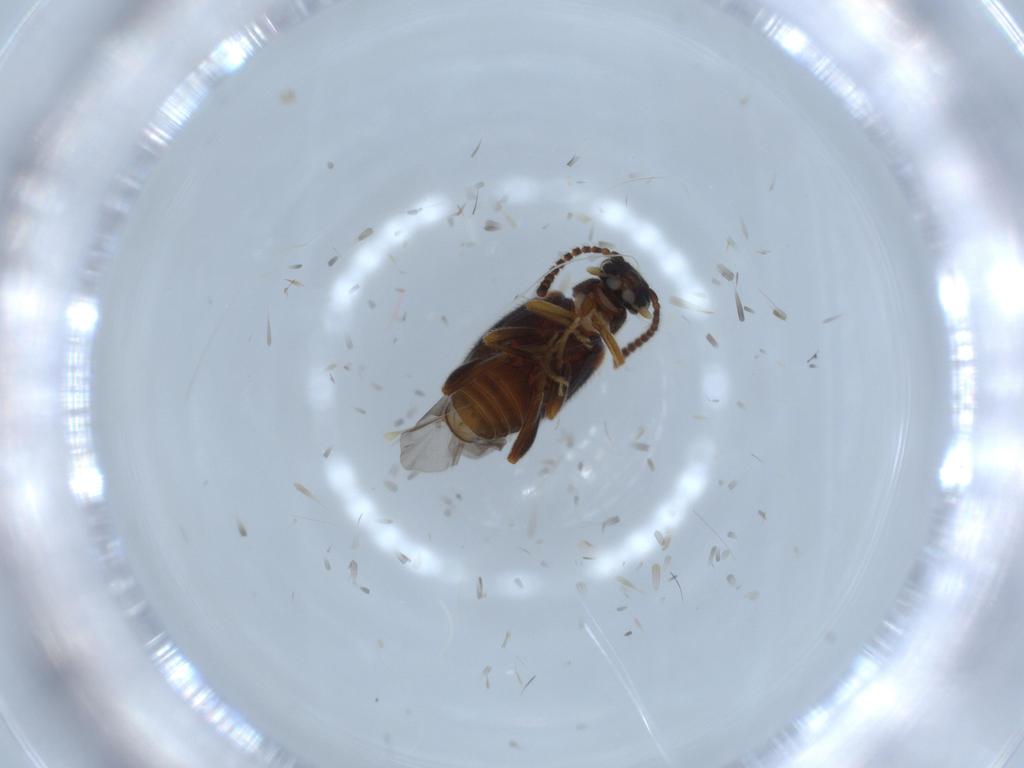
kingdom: Animalia
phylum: Arthropoda
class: Insecta
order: Coleoptera
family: Aderidae
